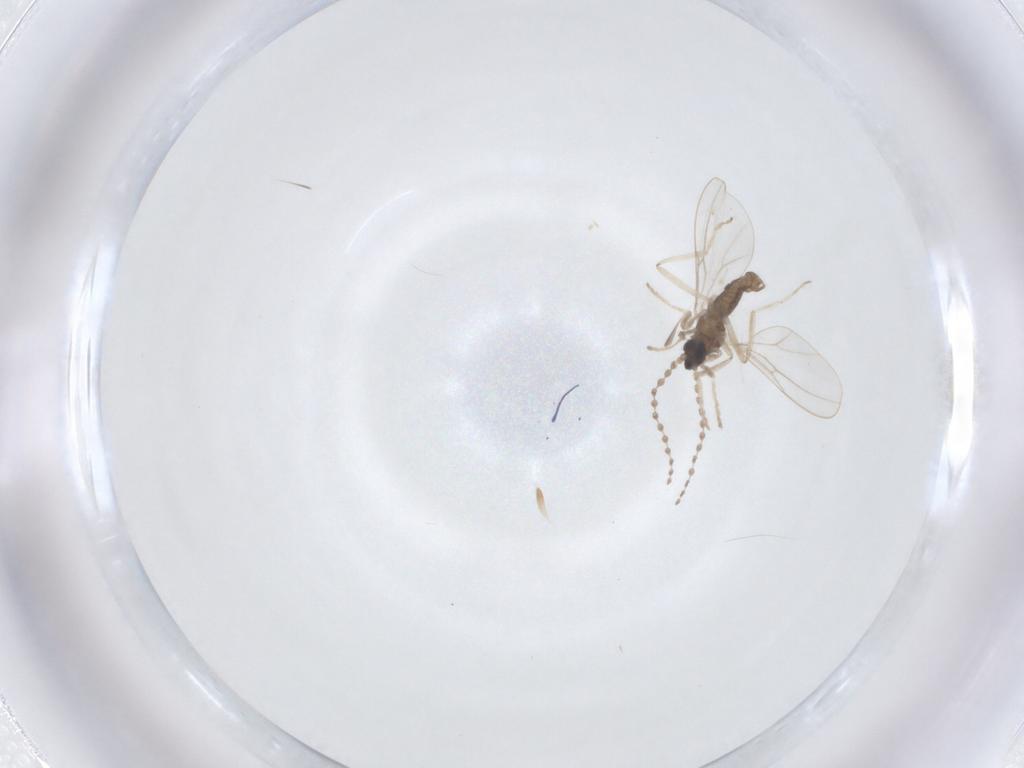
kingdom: Animalia
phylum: Arthropoda
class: Insecta
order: Diptera
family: Cecidomyiidae
